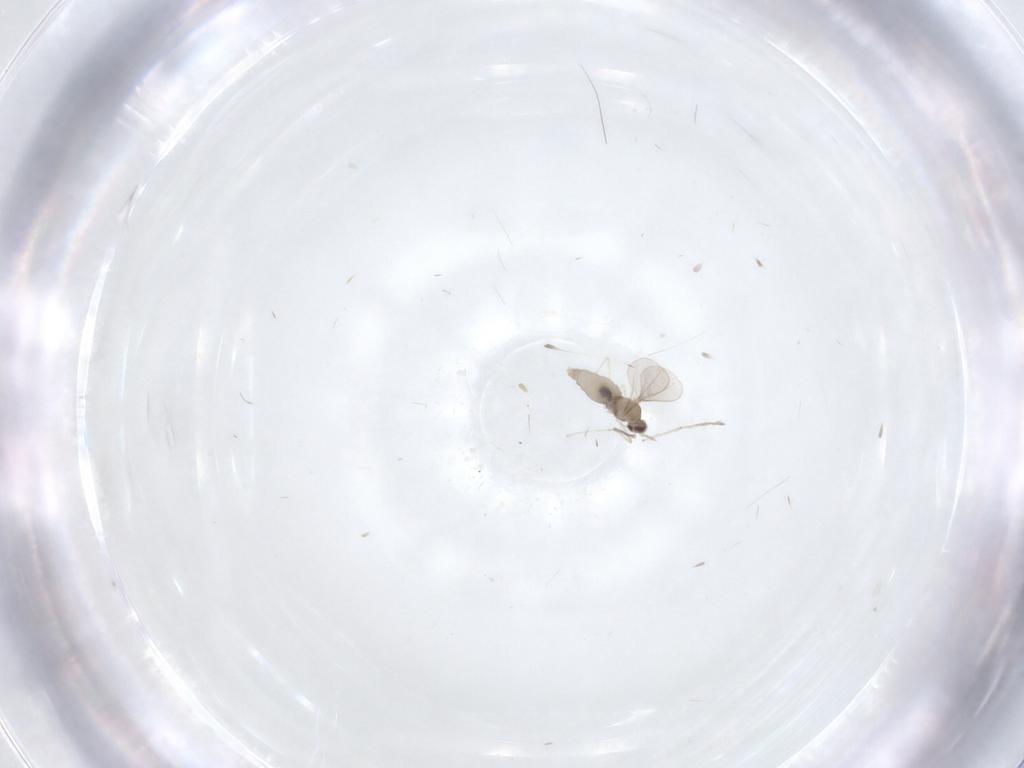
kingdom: Animalia
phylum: Arthropoda
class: Insecta
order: Diptera
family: Chironomidae
